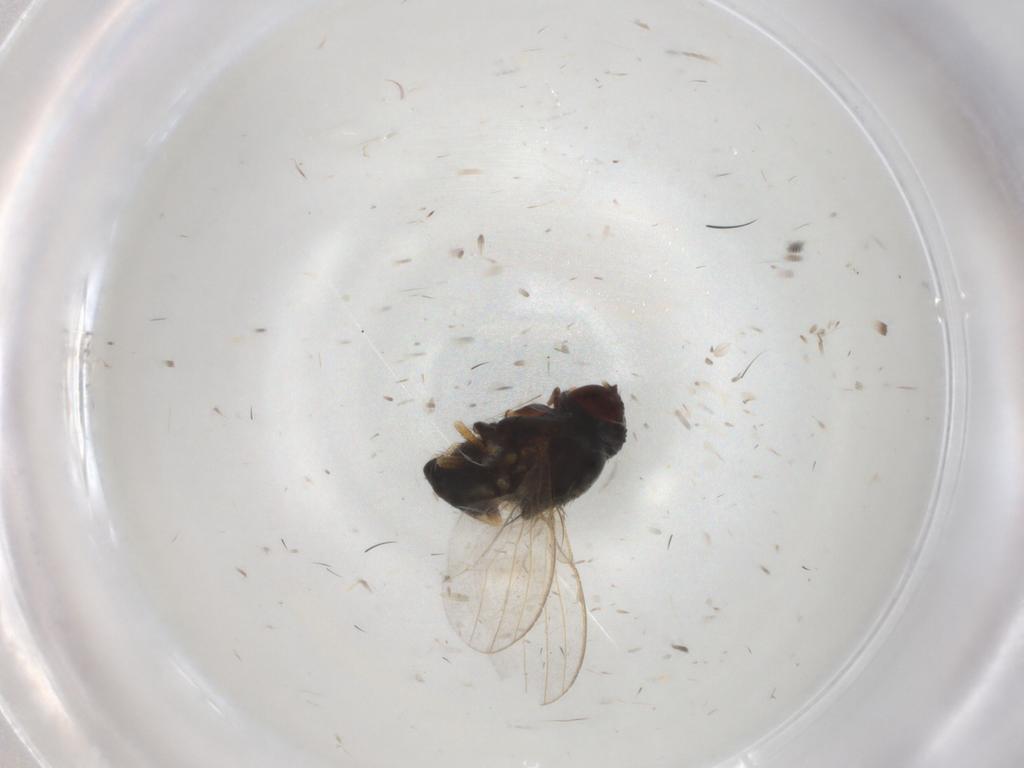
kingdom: Animalia
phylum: Arthropoda
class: Insecta
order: Diptera
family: Milichiidae
